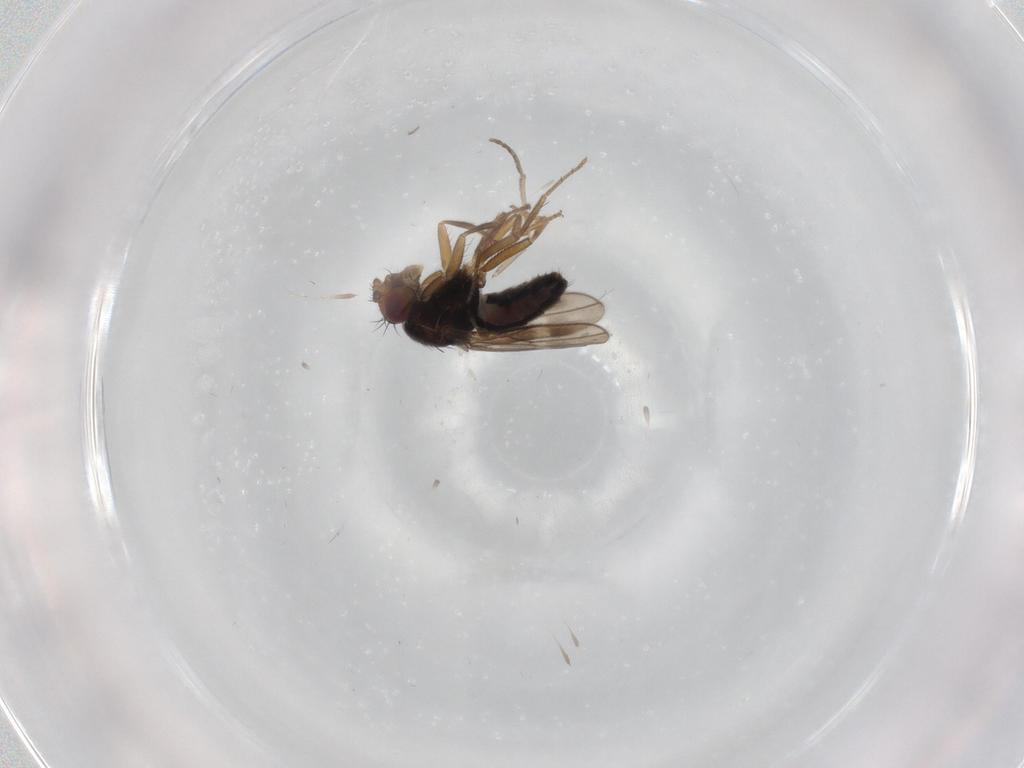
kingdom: Animalia
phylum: Arthropoda
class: Insecta
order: Diptera
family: Sphaeroceridae
